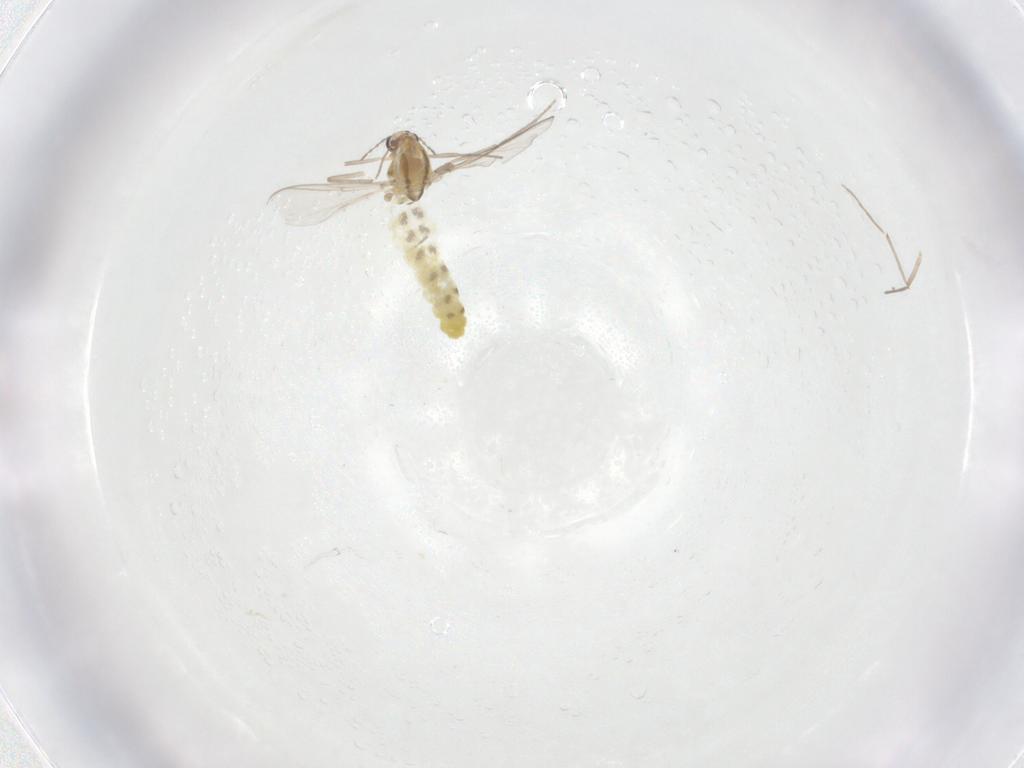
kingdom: Animalia
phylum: Arthropoda
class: Insecta
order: Diptera
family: Chironomidae
